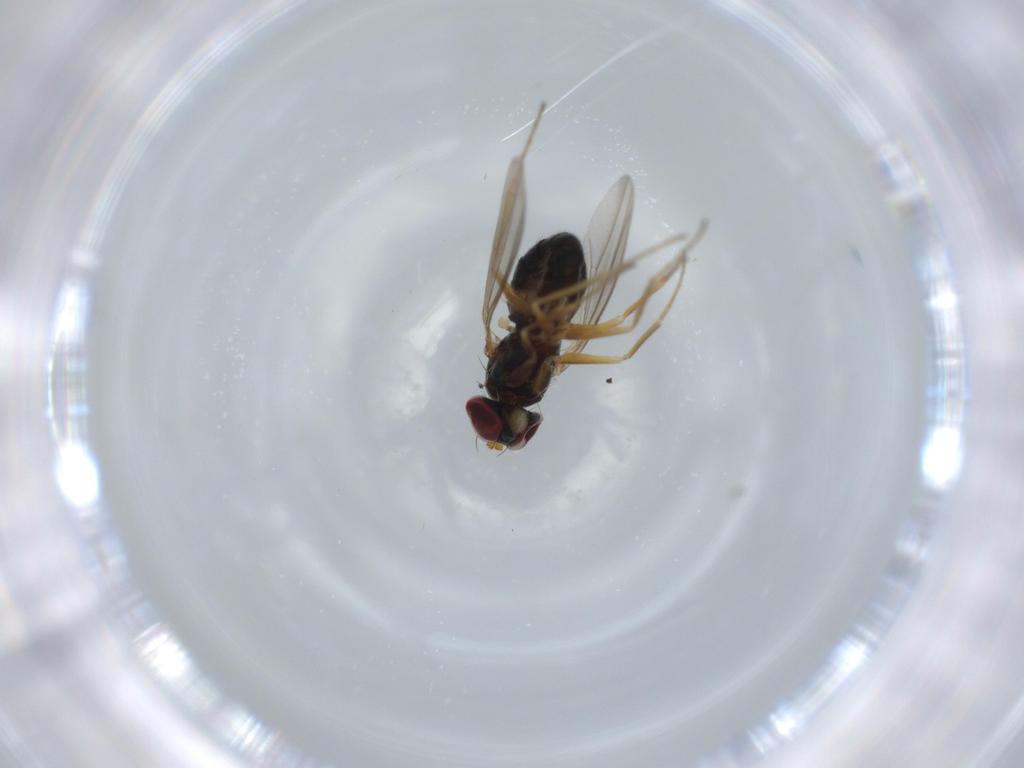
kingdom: Animalia
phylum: Arthropoda
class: Insecta
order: Diptera
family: Dolichopodidae
